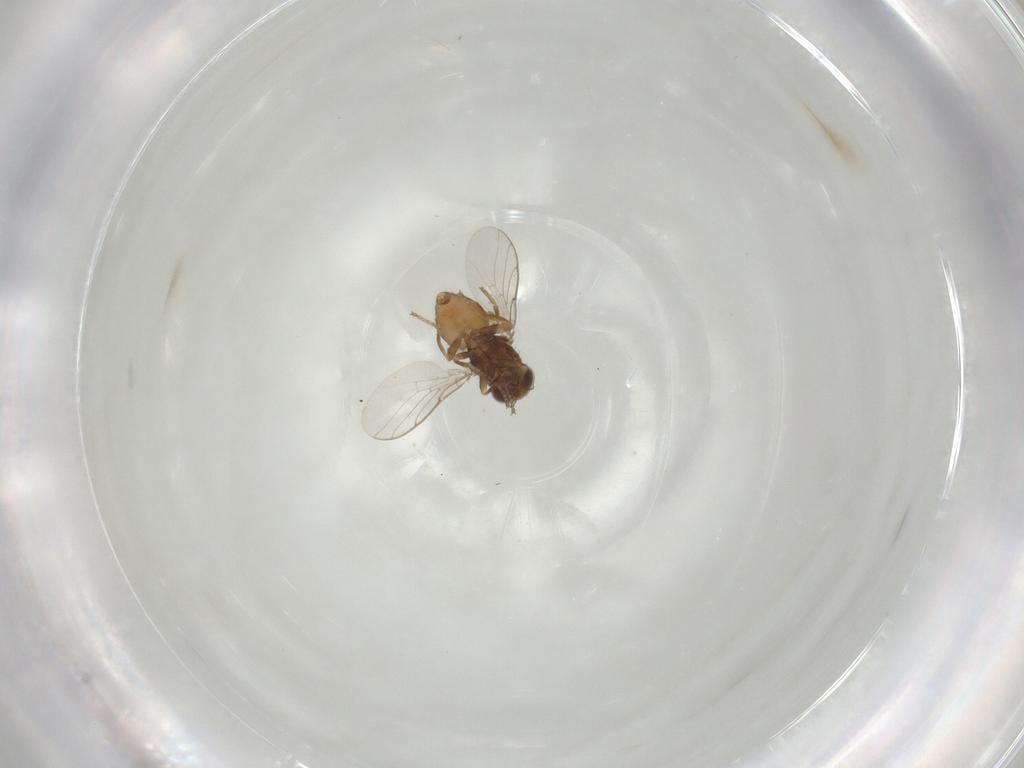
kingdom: Animalia
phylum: Arthropoda
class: Insecta
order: Diptera
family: Chloropidae
